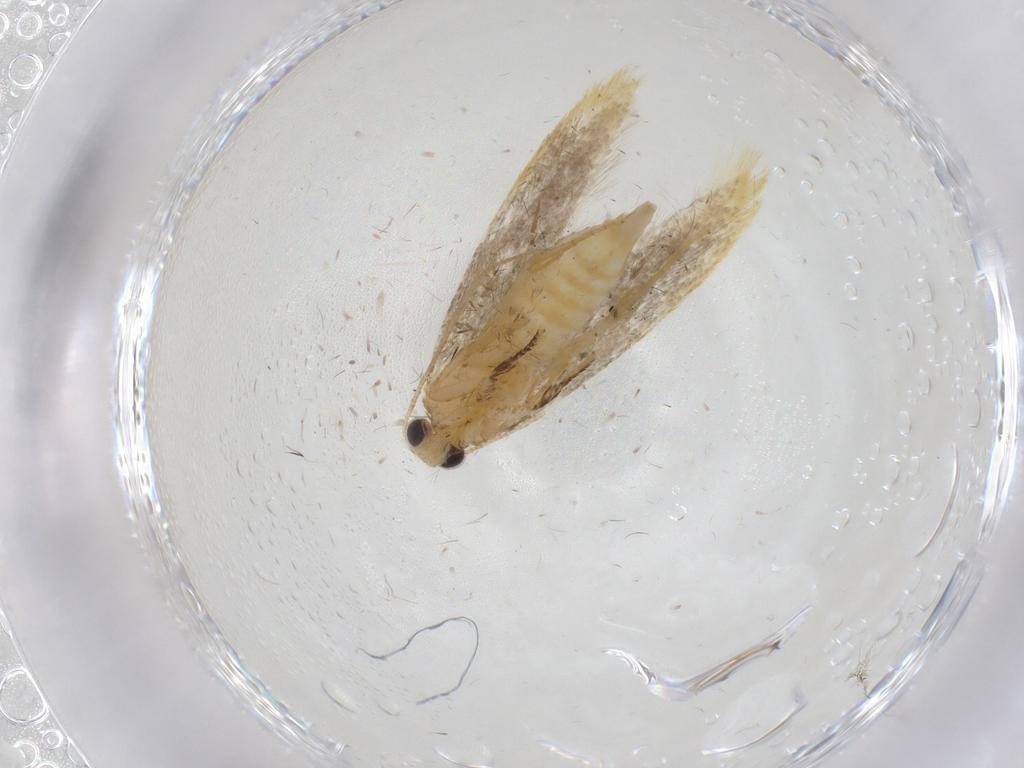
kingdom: Animalia
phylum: Arthropoda
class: Insecta
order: Lepidoptera
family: Tineidae
